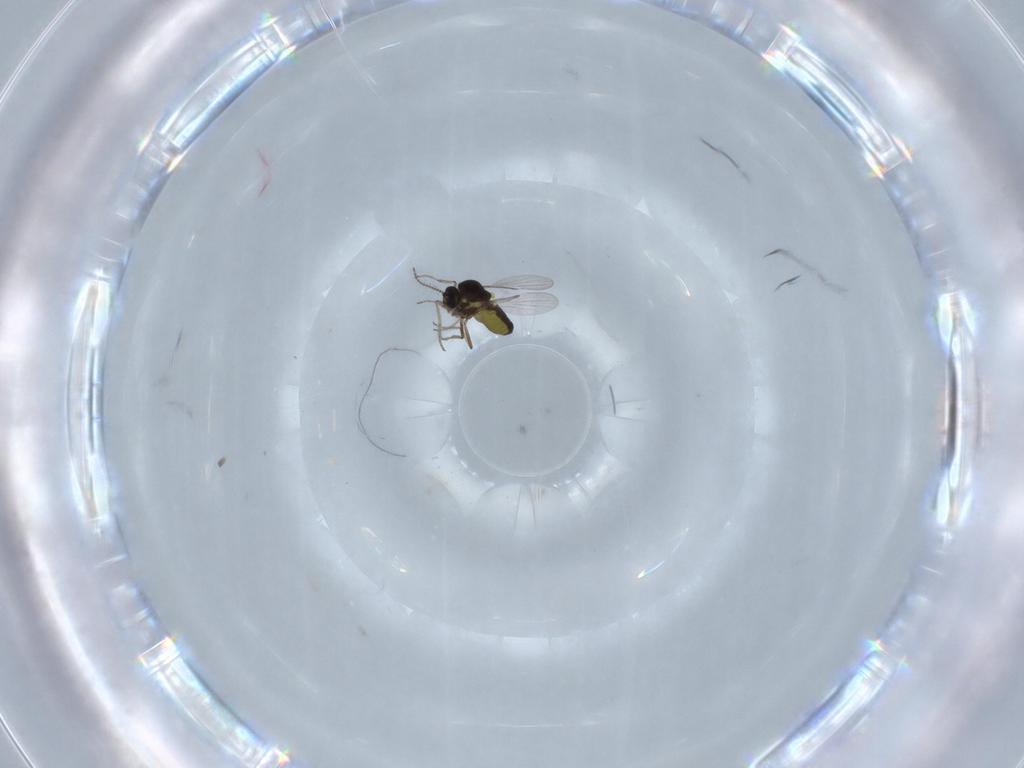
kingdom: Animalia
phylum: Arthropoda
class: Insecta
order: Diptera
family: Ceratopogonidae
